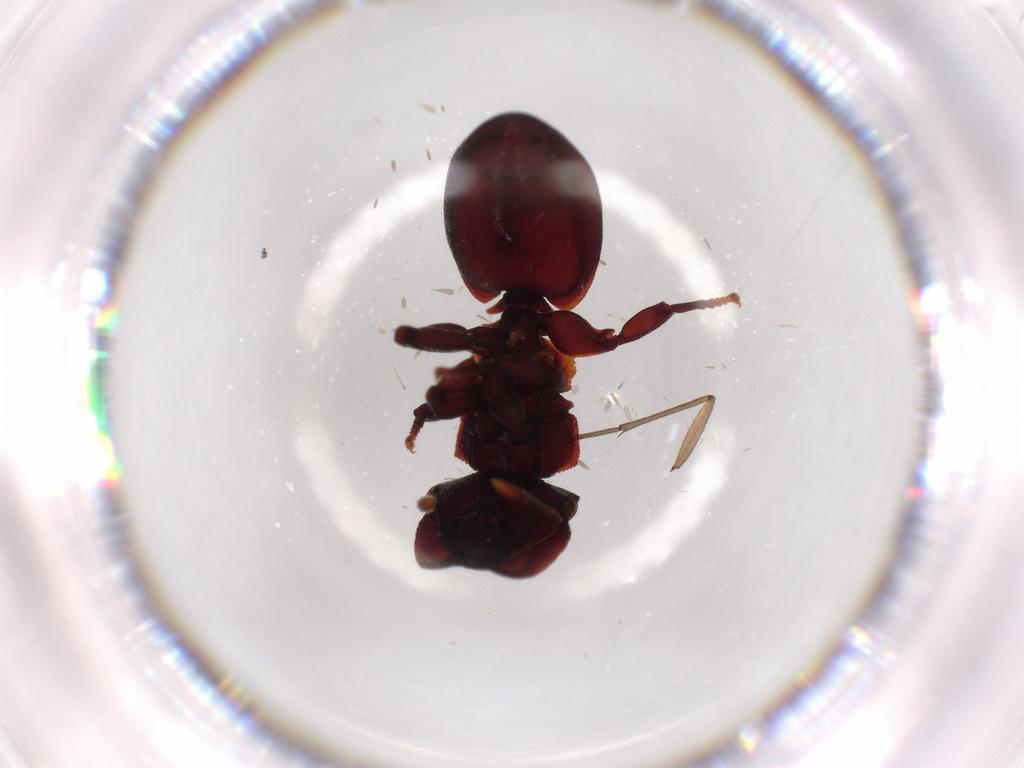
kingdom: Animalia
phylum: Arthropoda
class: Insecta
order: Hymenoptera
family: Formicidae
